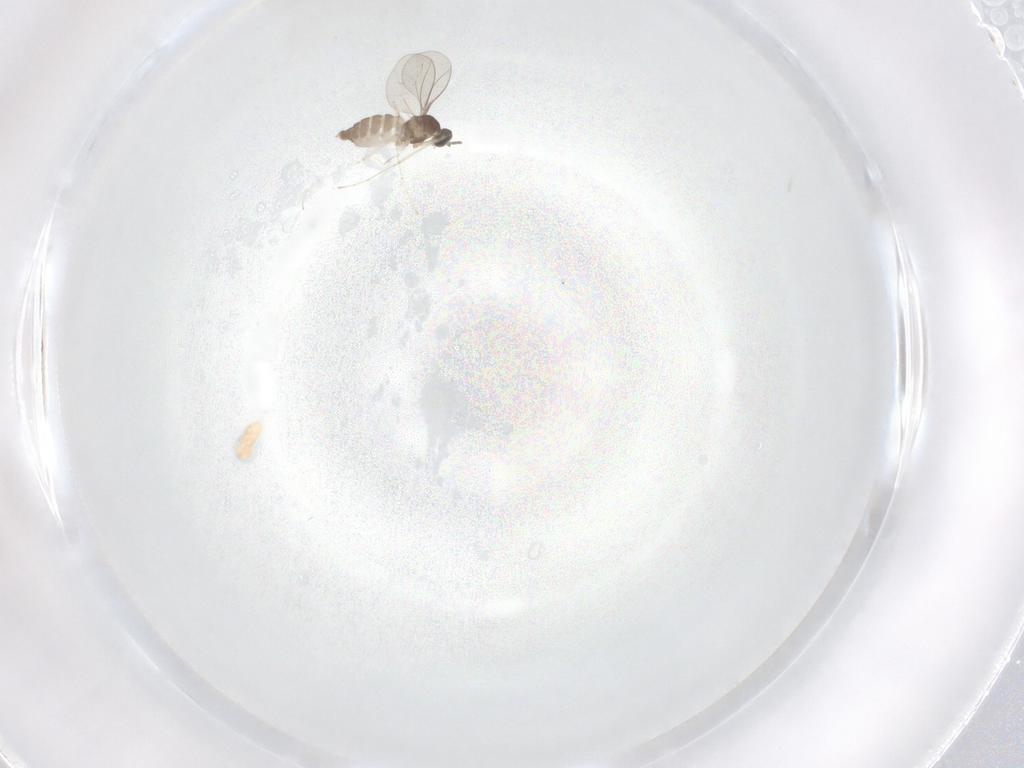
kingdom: Animalia
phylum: Arthropoda
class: Insecta
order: Diptera
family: Cecidomyiidae
